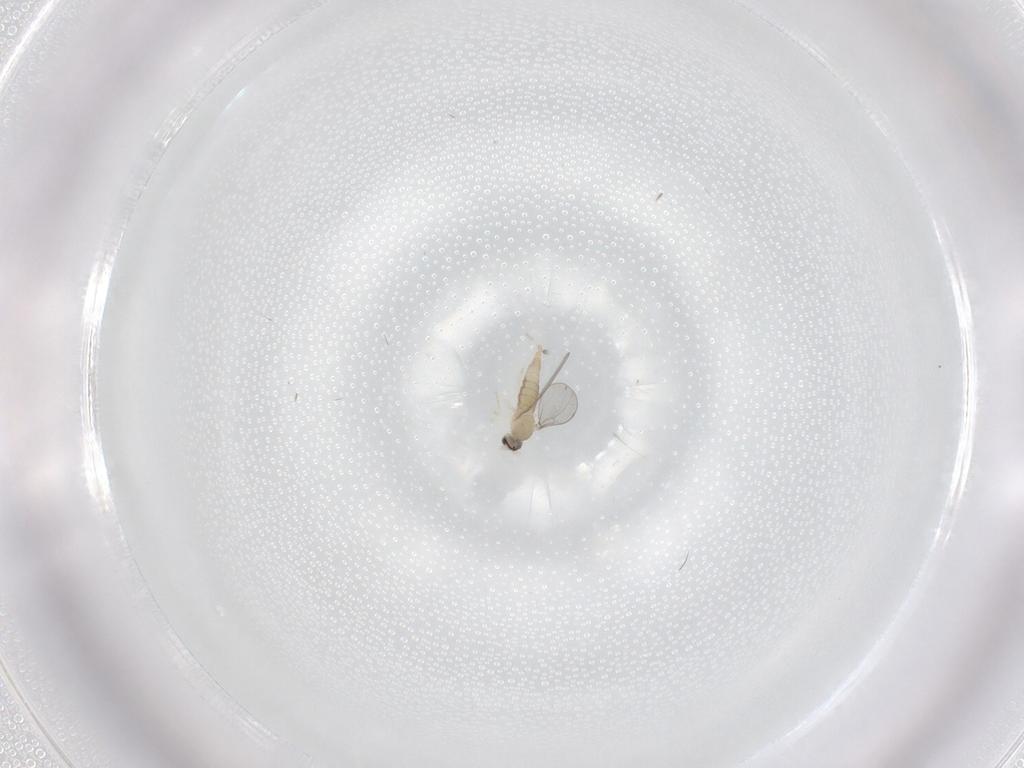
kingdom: Animalia
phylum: Arthropoda
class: Insecta
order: Diptera
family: Cecidomyiidae
